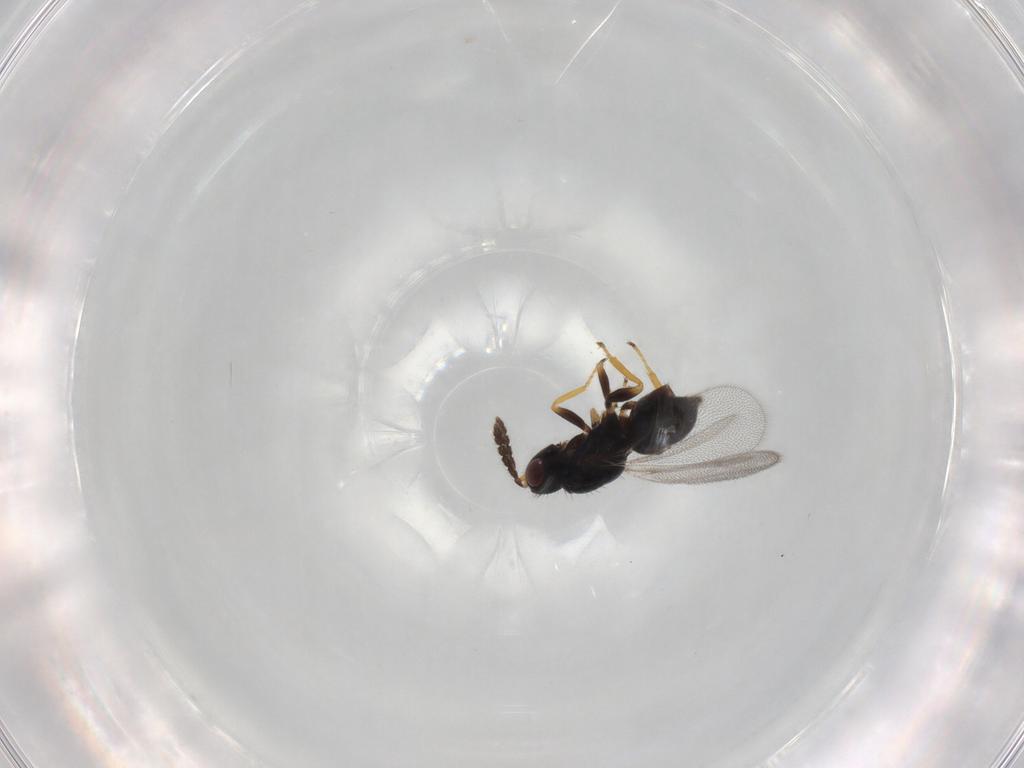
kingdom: Animalia
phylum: Arthropoda
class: Insecta
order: Hymenoptera
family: Eulophidae
